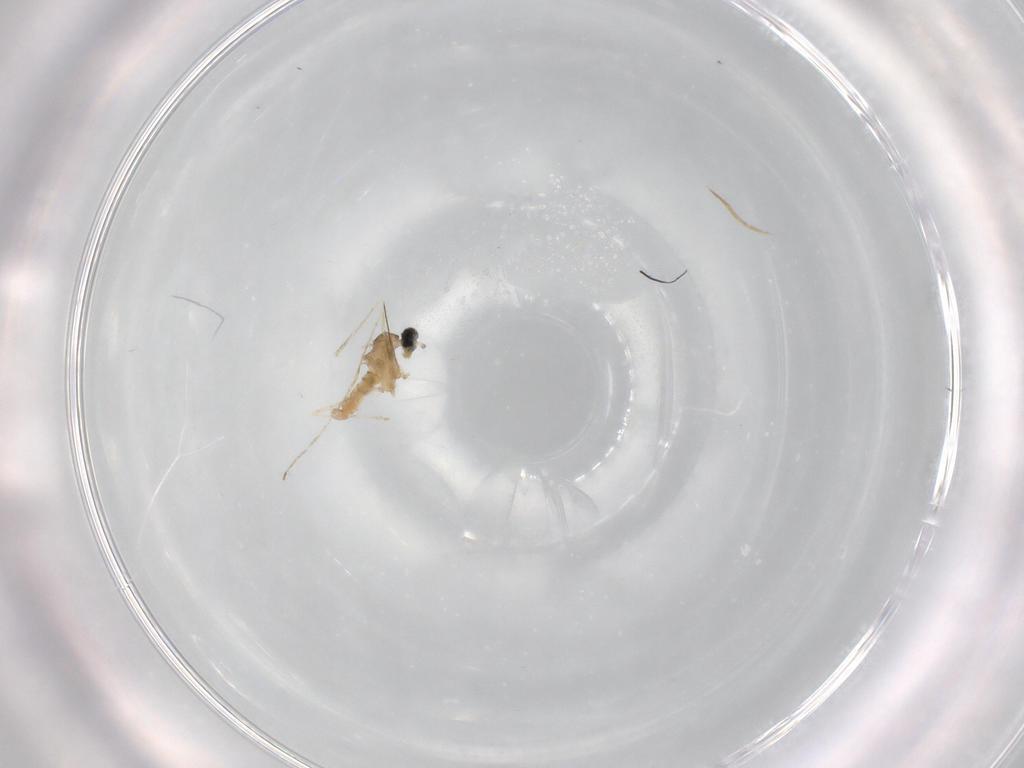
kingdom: Animalia
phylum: Arthropoda
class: Insecta
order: Diptera
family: Cecidomyiidae
